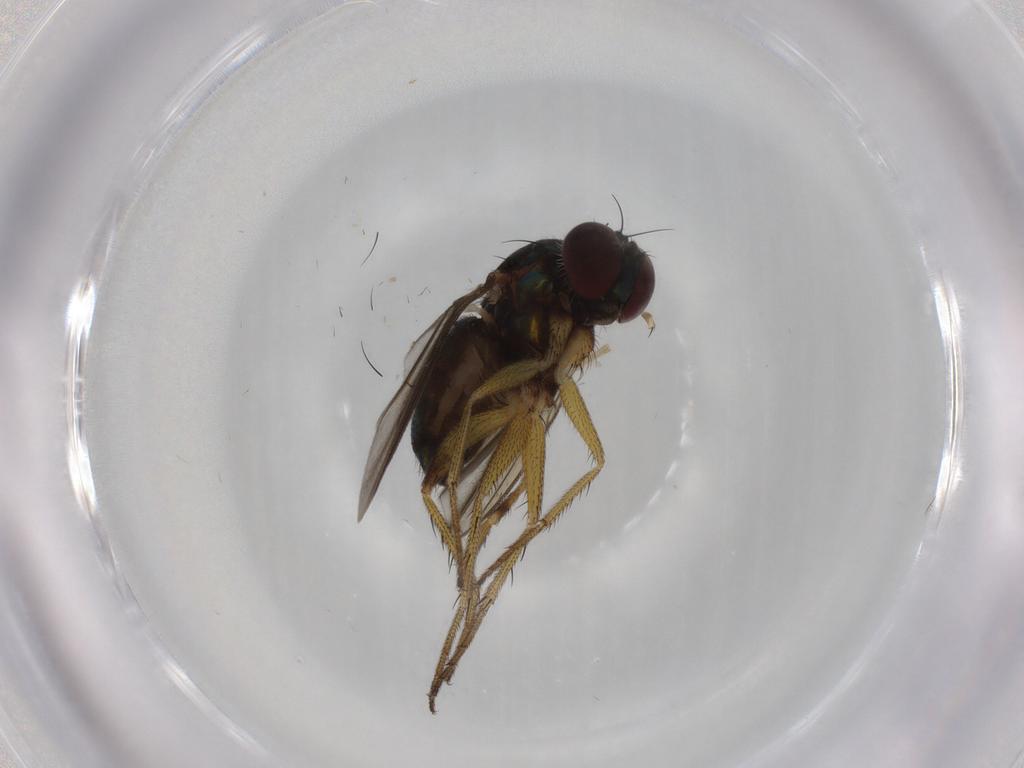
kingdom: Animalia
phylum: Arthropoda
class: Insecta
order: Diptera
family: Dolichopodidae
